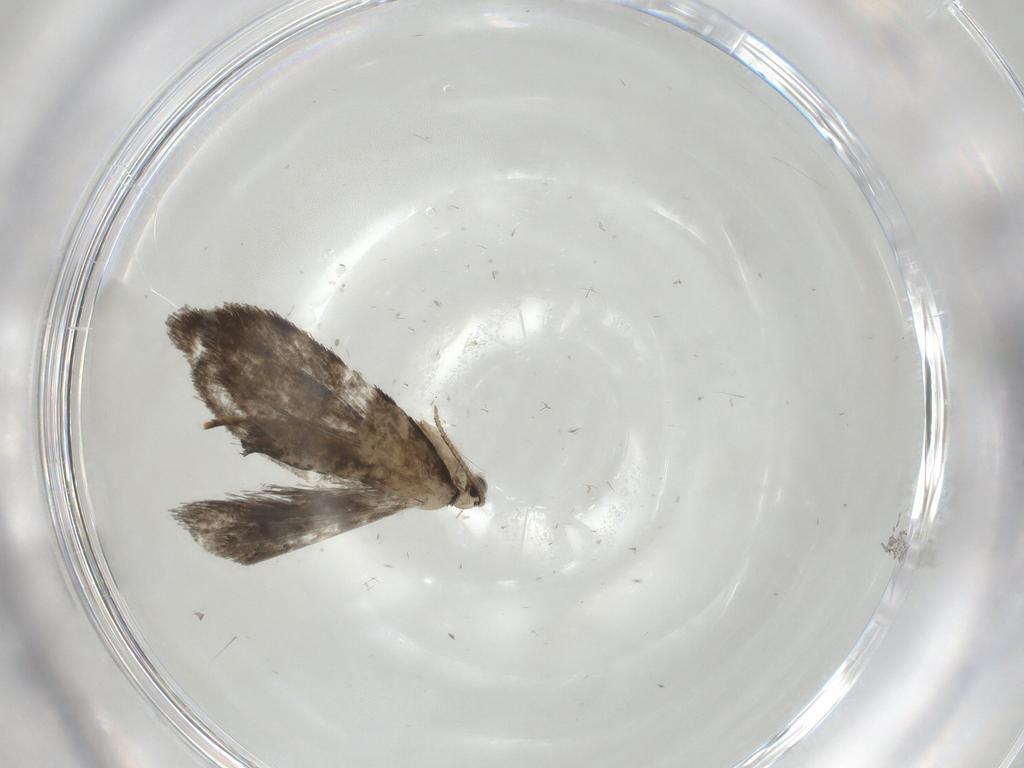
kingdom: Animalia
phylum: Arthropoda
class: Insecta
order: Lepidoptera
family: Psychidae
